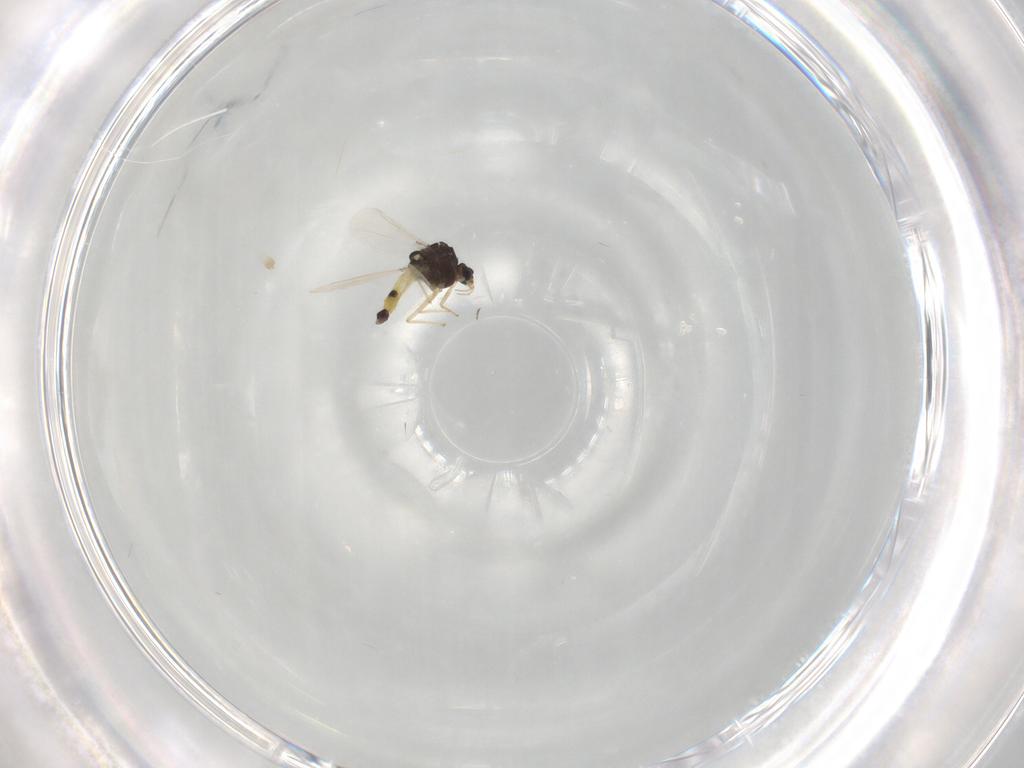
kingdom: Animalia
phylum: Arthropoda
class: Insecta
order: Diptera
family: Chironomidae
